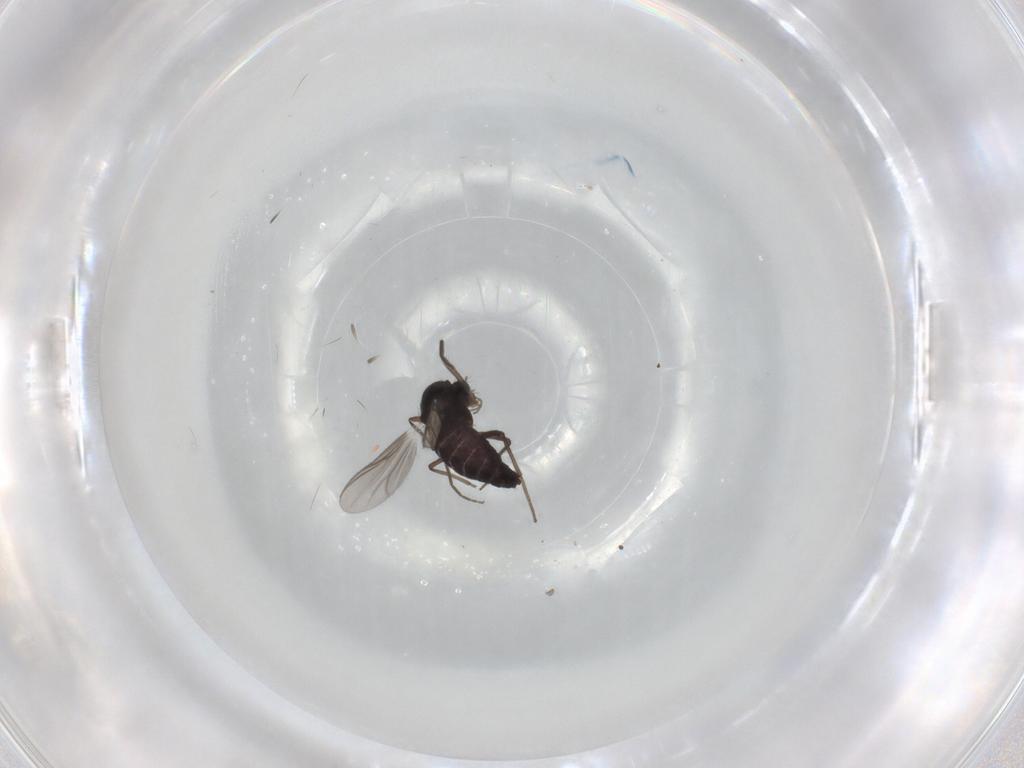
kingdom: Animalia
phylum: Arthropoda
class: Insecta
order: Diptera
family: Chironomidae
